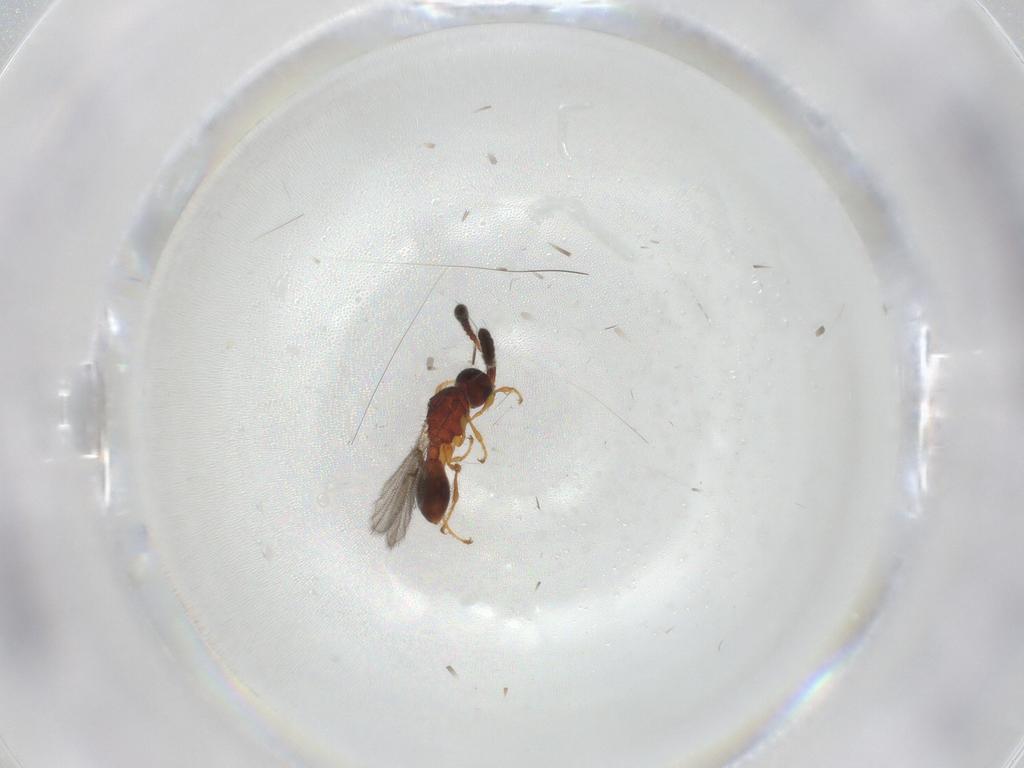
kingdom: Animalia
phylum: Arthropoda
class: Insecta
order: Hymenoptera
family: Diapriidae
